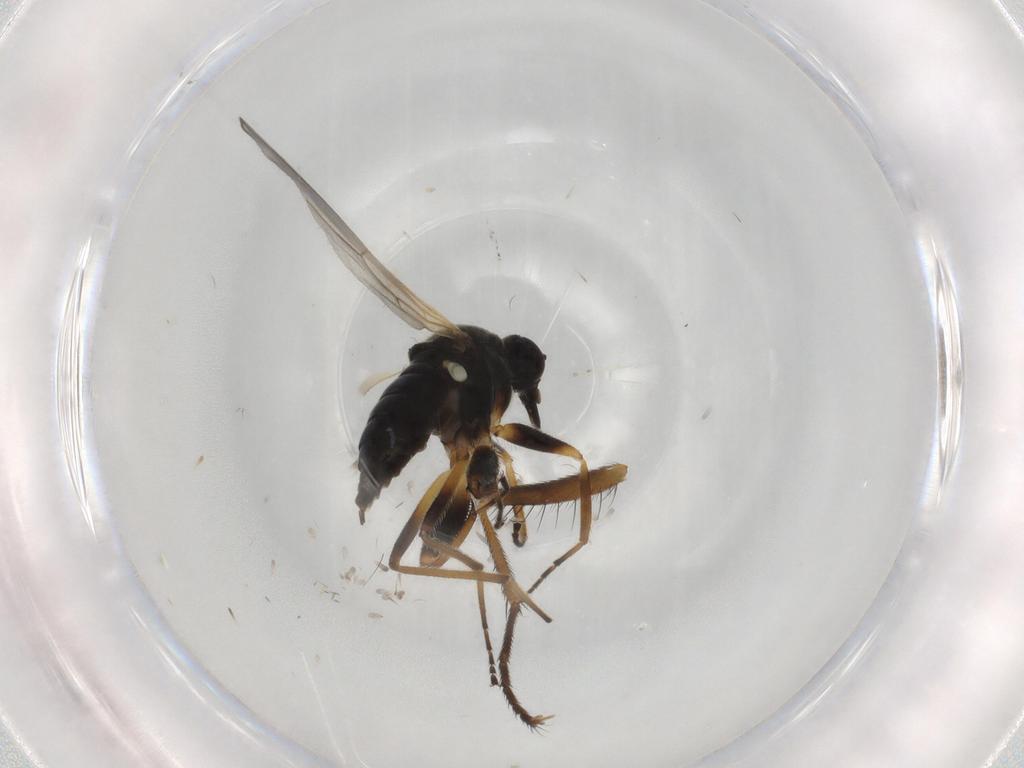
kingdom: Animalia
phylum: Arthropoda
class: Insecta
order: Diptera
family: Hybotidae
